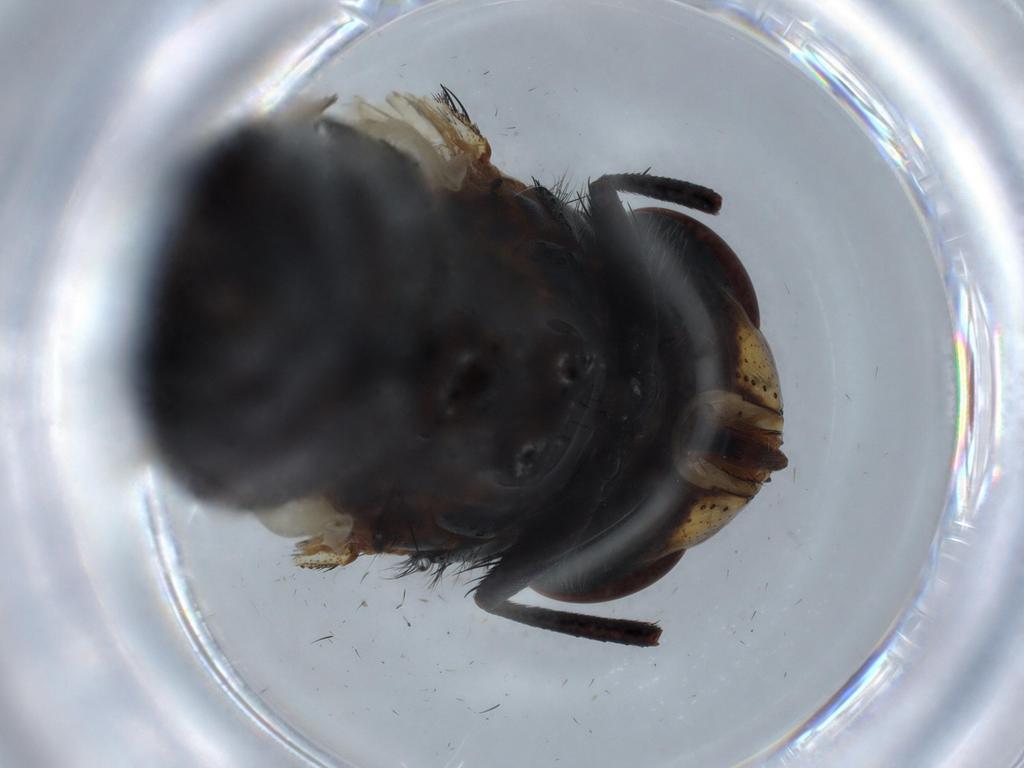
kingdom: Animalia
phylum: Arthropoda
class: Insecta
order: Diptera
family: Tachinidae
